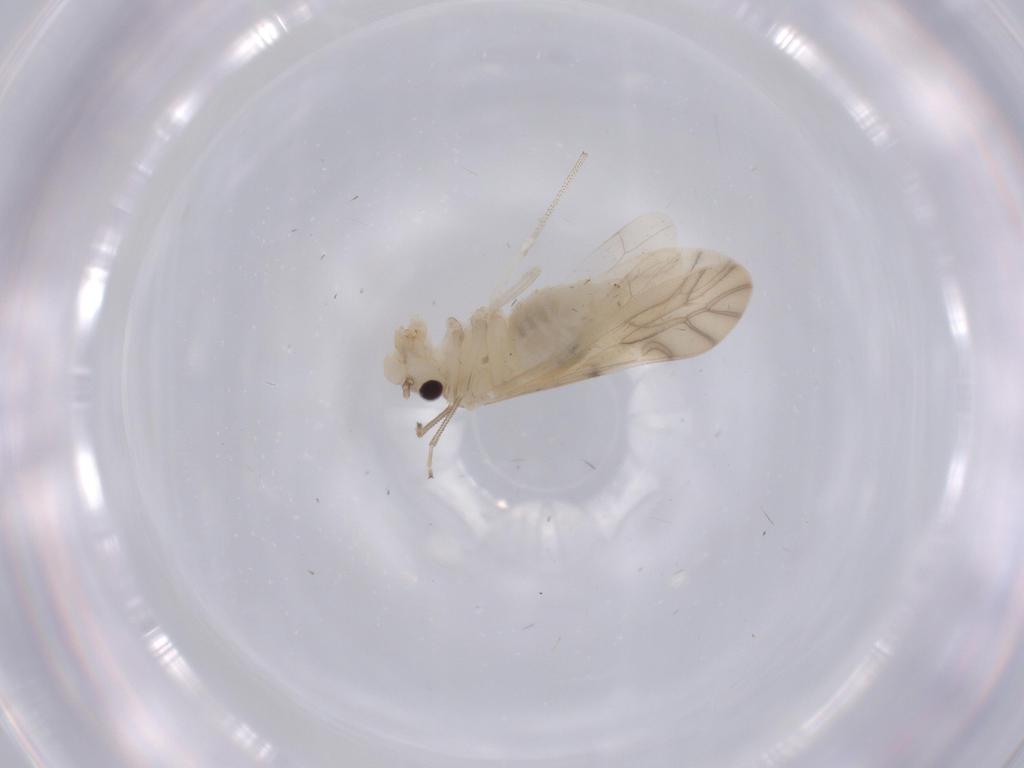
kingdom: Animalia
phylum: Arthropoda
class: Insecta
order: Psocodea
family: Lepidopsocidae
